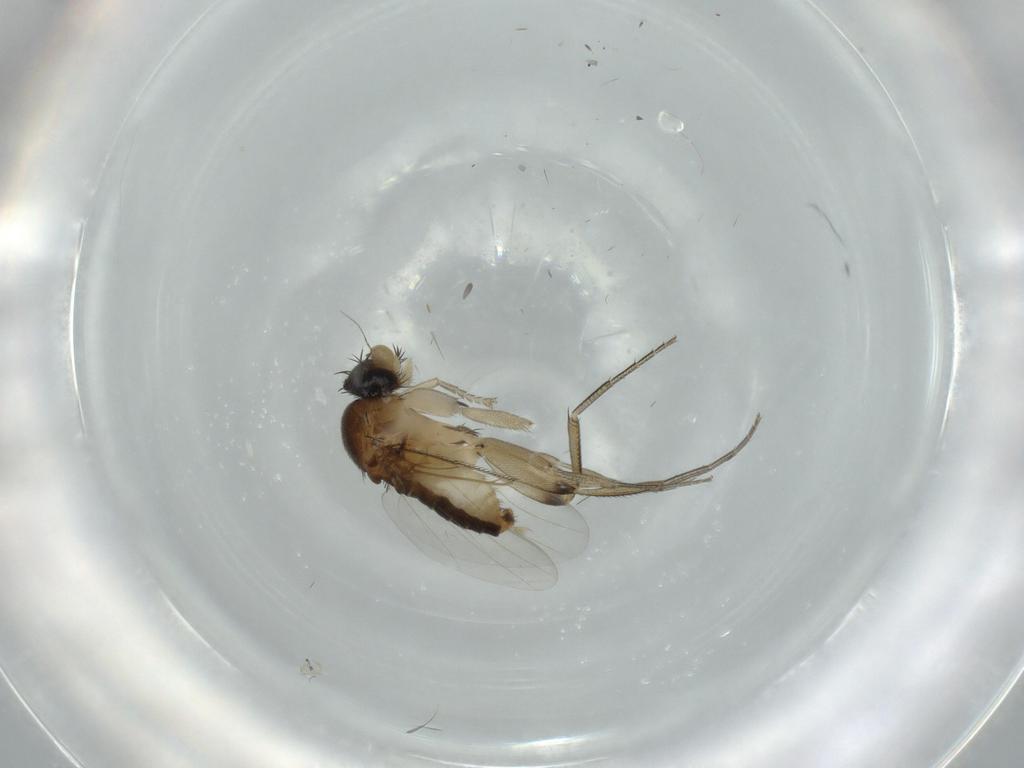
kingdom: Animalia
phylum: Arthropoda
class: Insecta
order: Diptera
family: Phoridae
